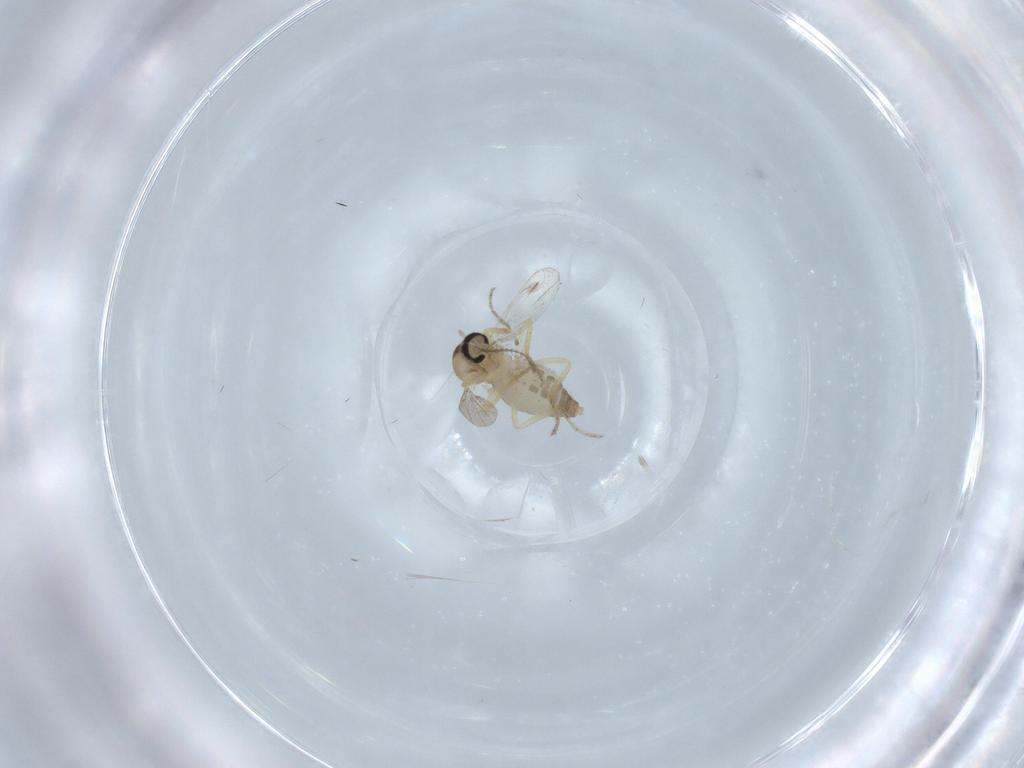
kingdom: Animalia
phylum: Arthropoda
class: Insecta
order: Diptera
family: Ceratopogonidae
